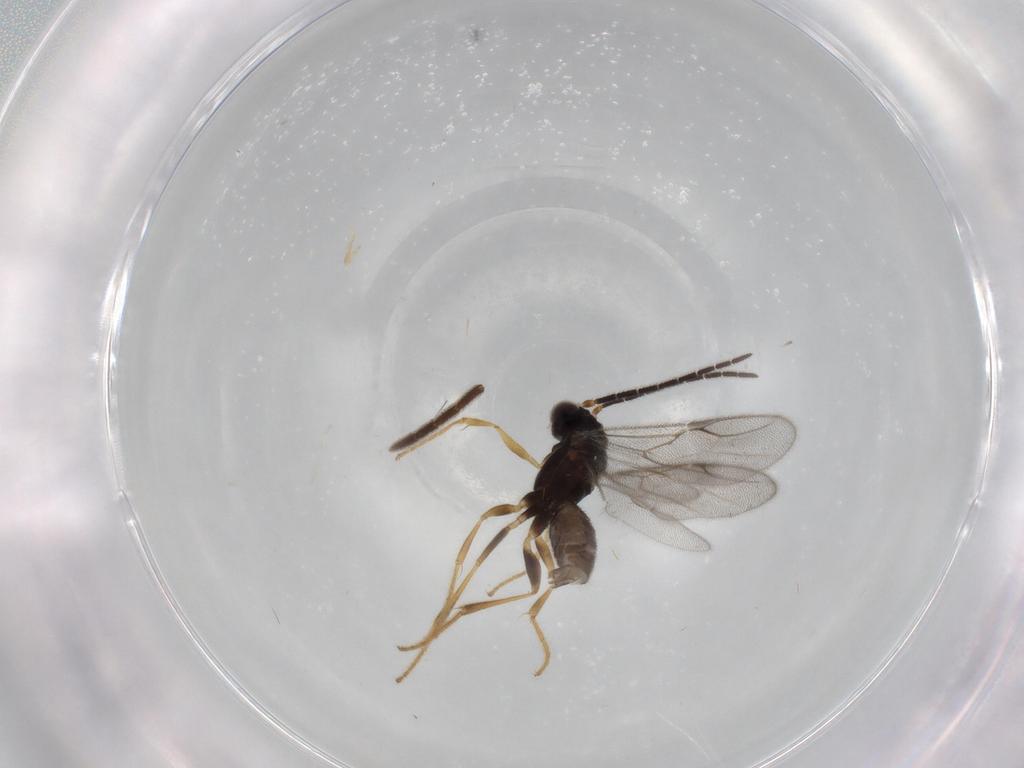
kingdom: Animalia
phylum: Arthropoda
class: Insecta
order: Hymenoptera
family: Dryinidae
